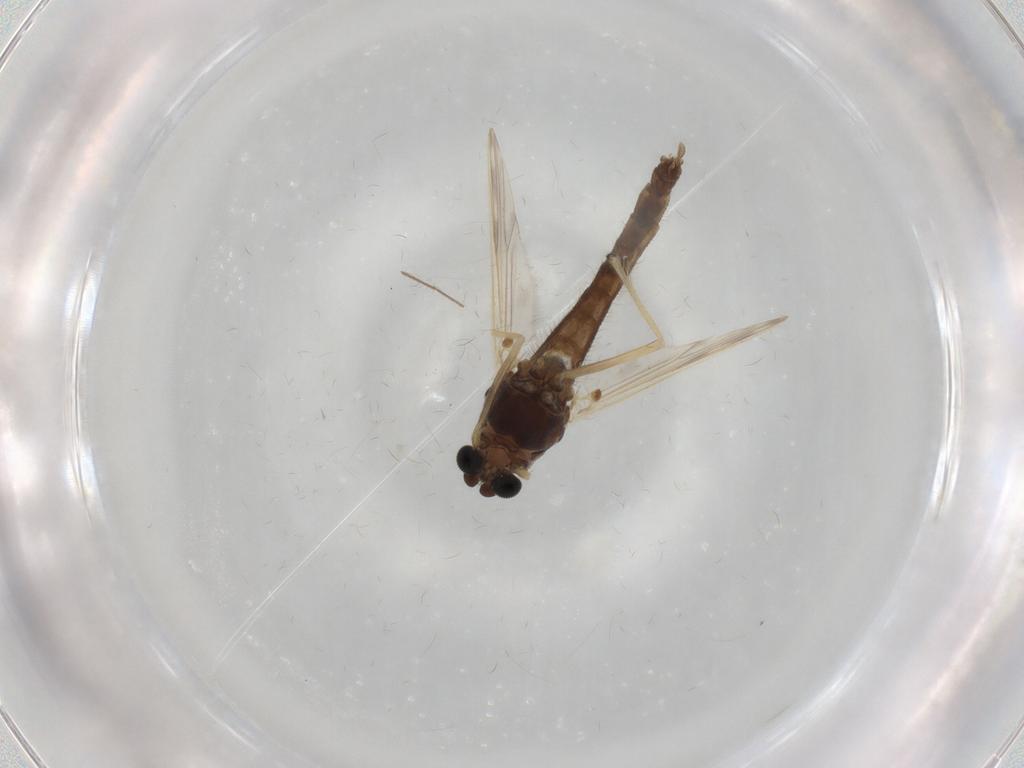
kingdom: Animalia
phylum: Arthropoda
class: Insecta
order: Diptera
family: Chironomidae
